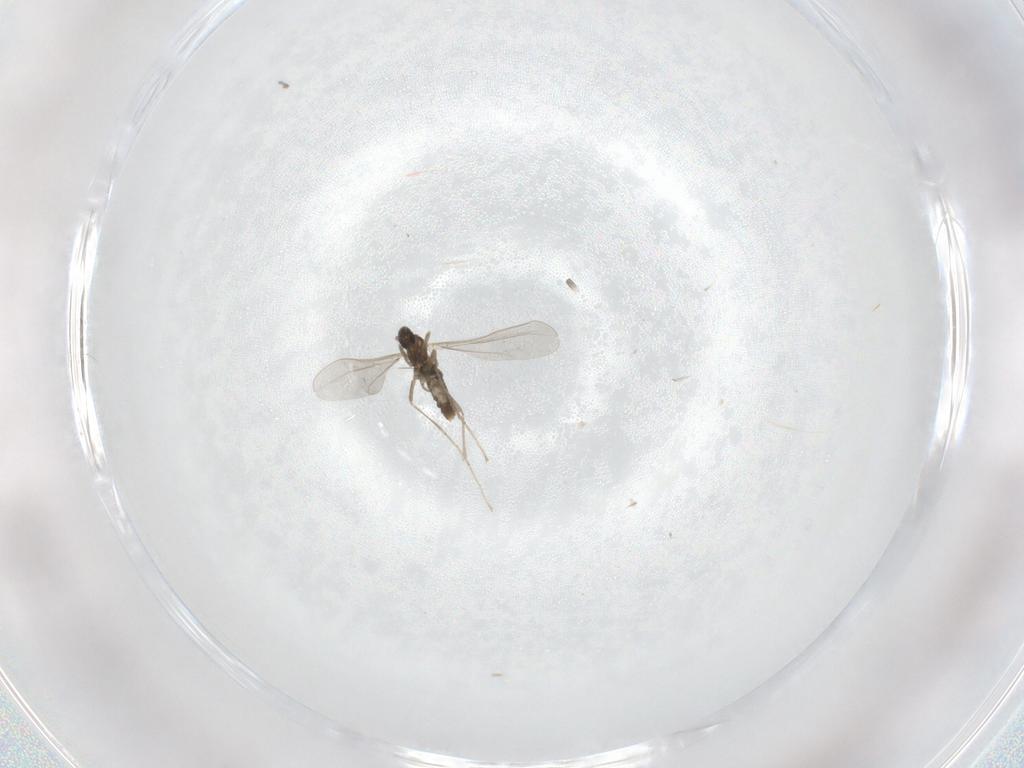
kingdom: Animalia
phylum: Arthropoda
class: Insecta
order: Diptera
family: Cecidomyiidae
